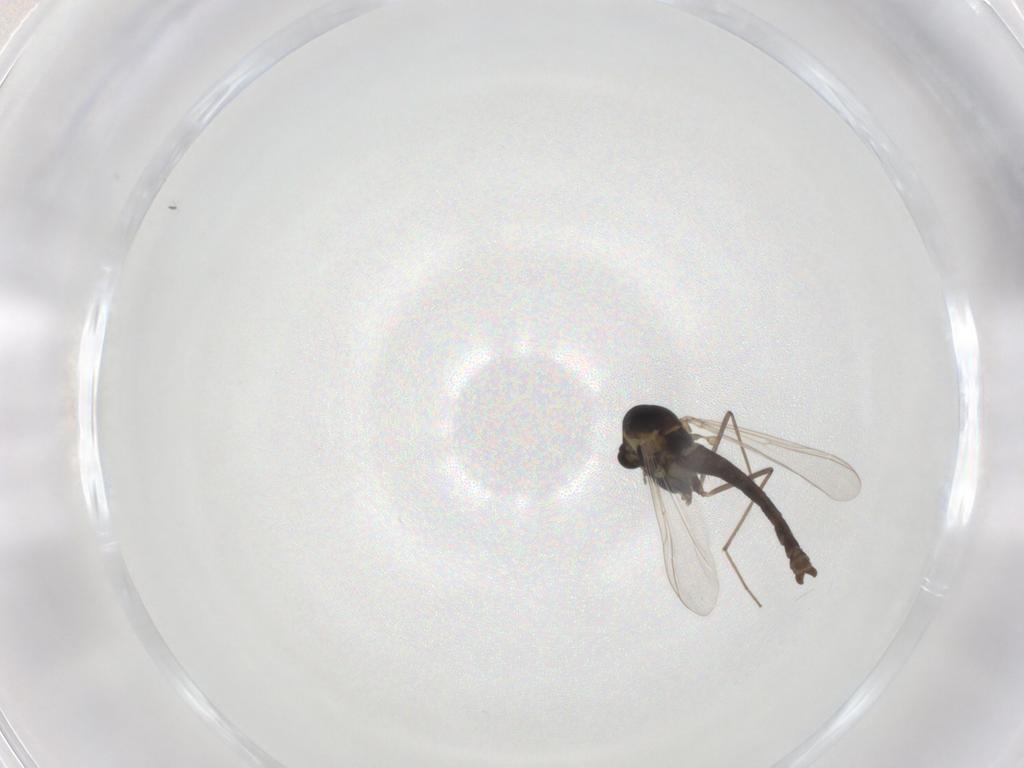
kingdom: Animalia
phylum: Arthropoda
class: Insecta
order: Diptera
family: Chironomidae
